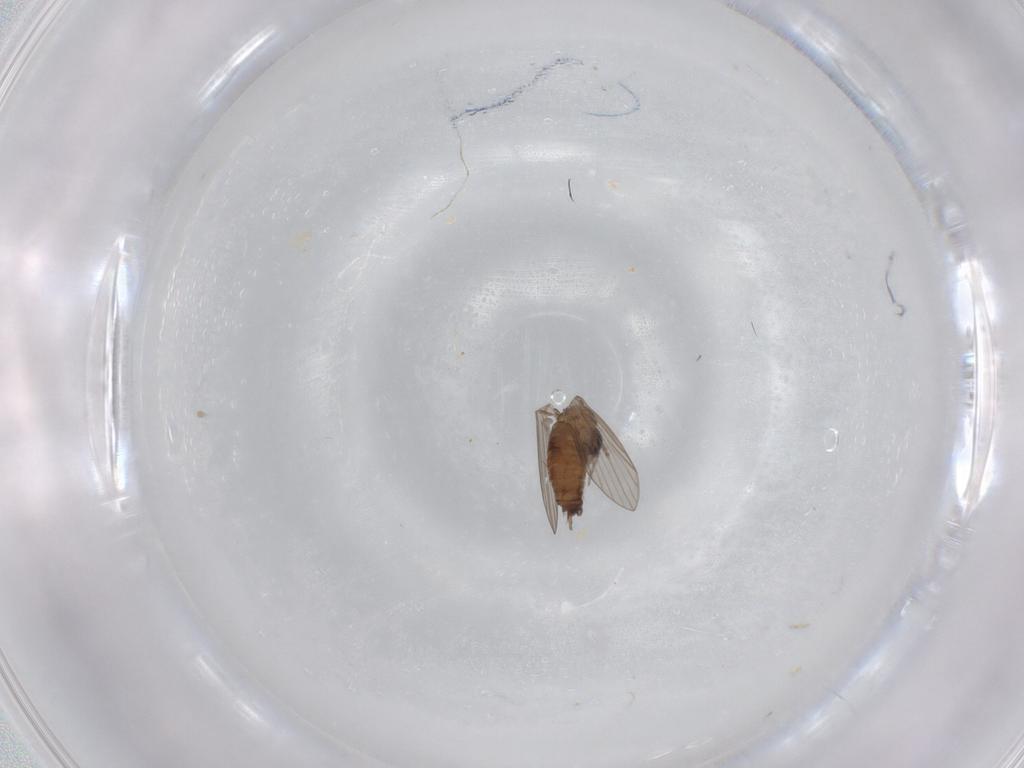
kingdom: Animalia
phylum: Arthropoda
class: Insecta
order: Diptera
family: Psychodidae
